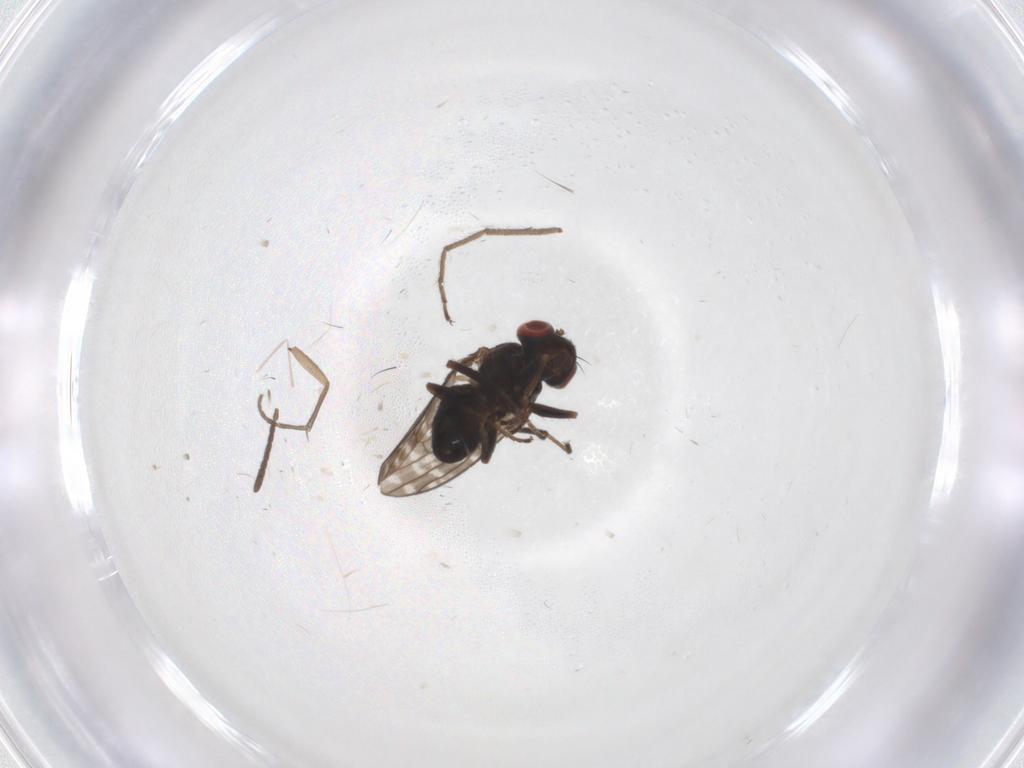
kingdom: Animalia
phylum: Arthropoda
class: Insecta
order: Diptera
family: Ephydridae
